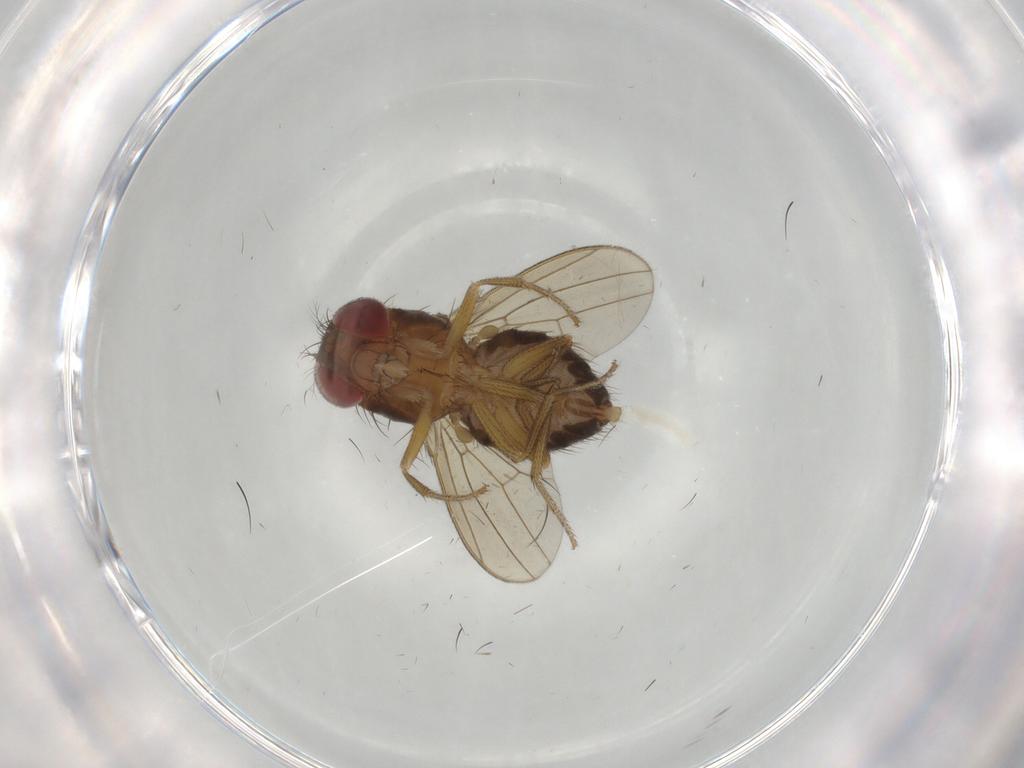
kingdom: Animalia
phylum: Arthropoda
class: Insecta
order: Diptera
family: Drosophilidae
